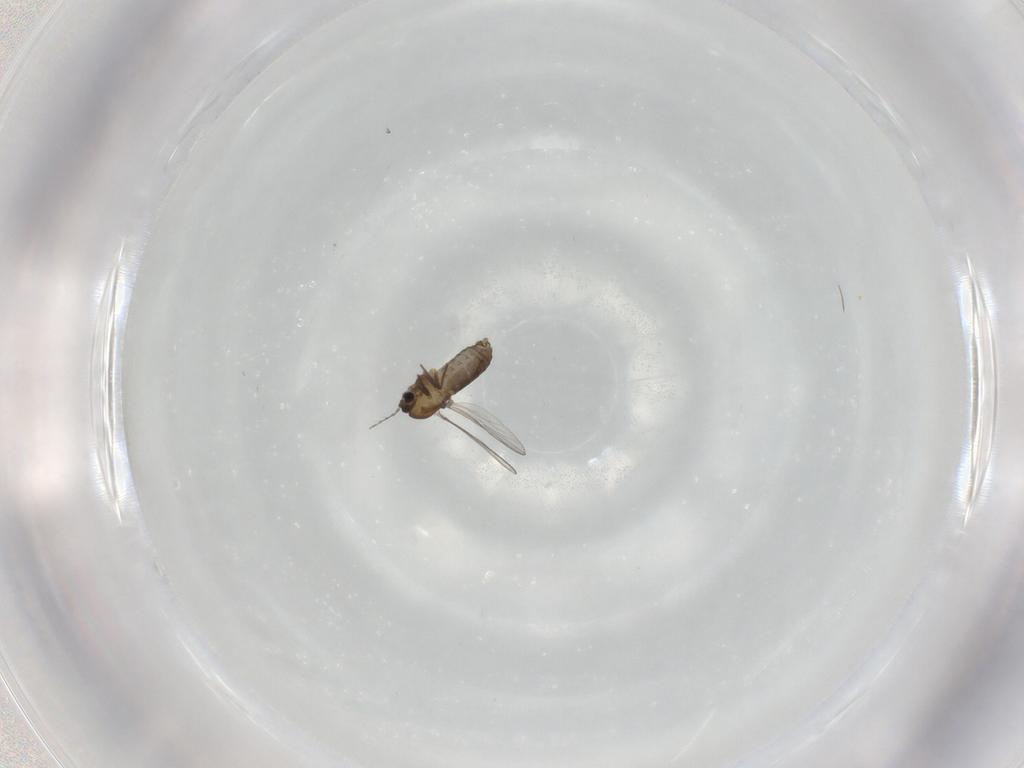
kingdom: Animalia
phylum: Arthropoda
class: Insecta
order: Diptera
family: Chironomidae
